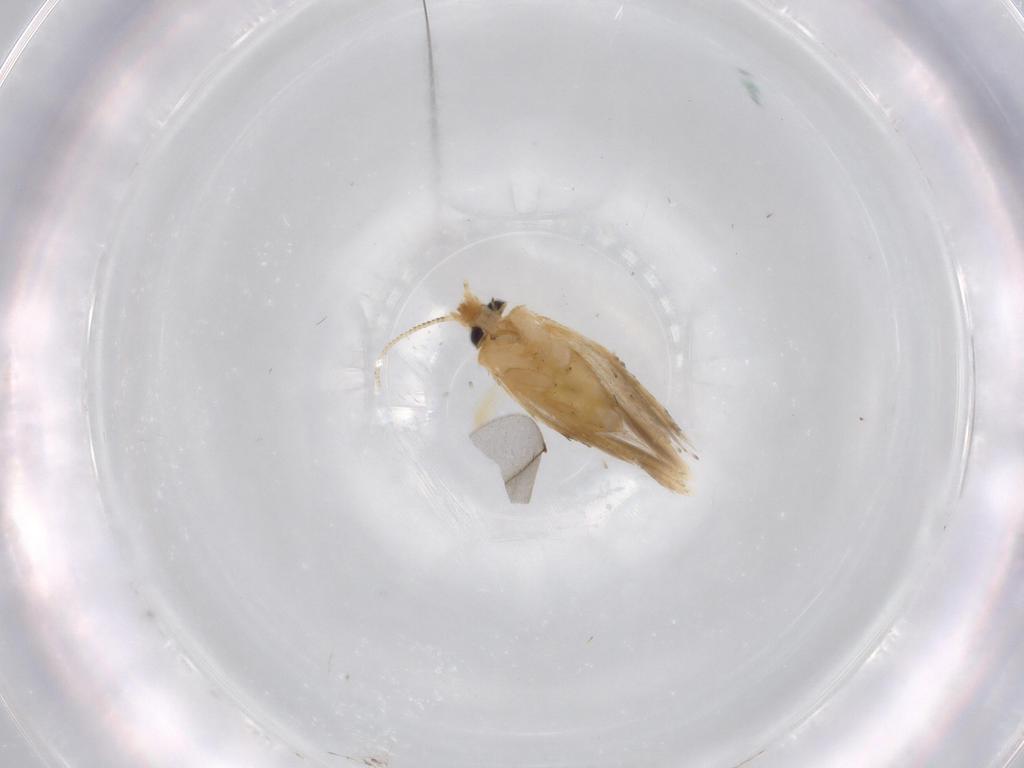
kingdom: Animalia
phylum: Arthropoda
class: Insecta
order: Lepidoptera
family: Nepticulidae
